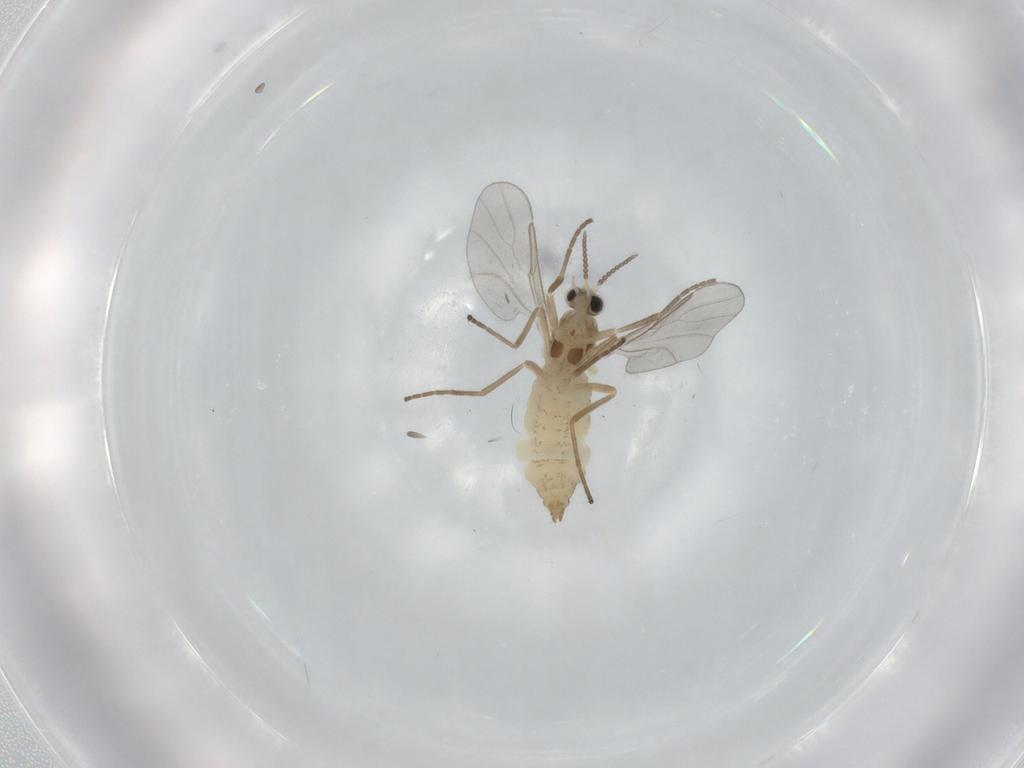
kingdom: Animalia
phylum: Arthropoda
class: Insecta
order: Diptera
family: Cecidomyiidae
